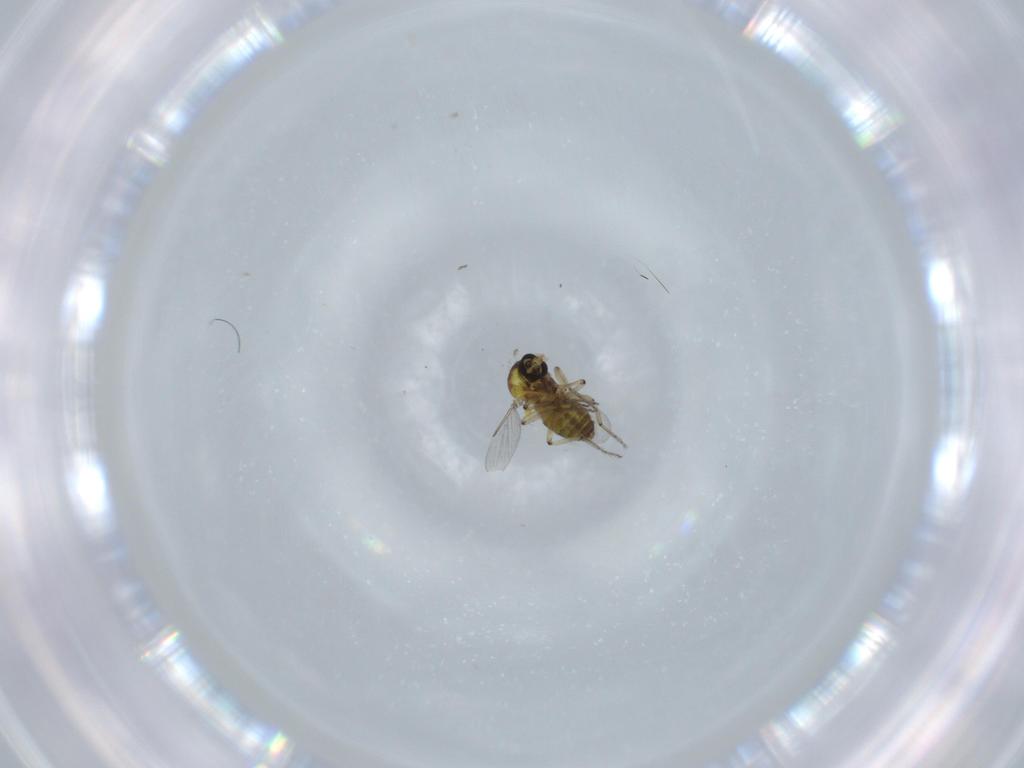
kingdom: Animalia
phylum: Arthropoda
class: Insecta
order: Diptera
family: Ceratopogonidae
